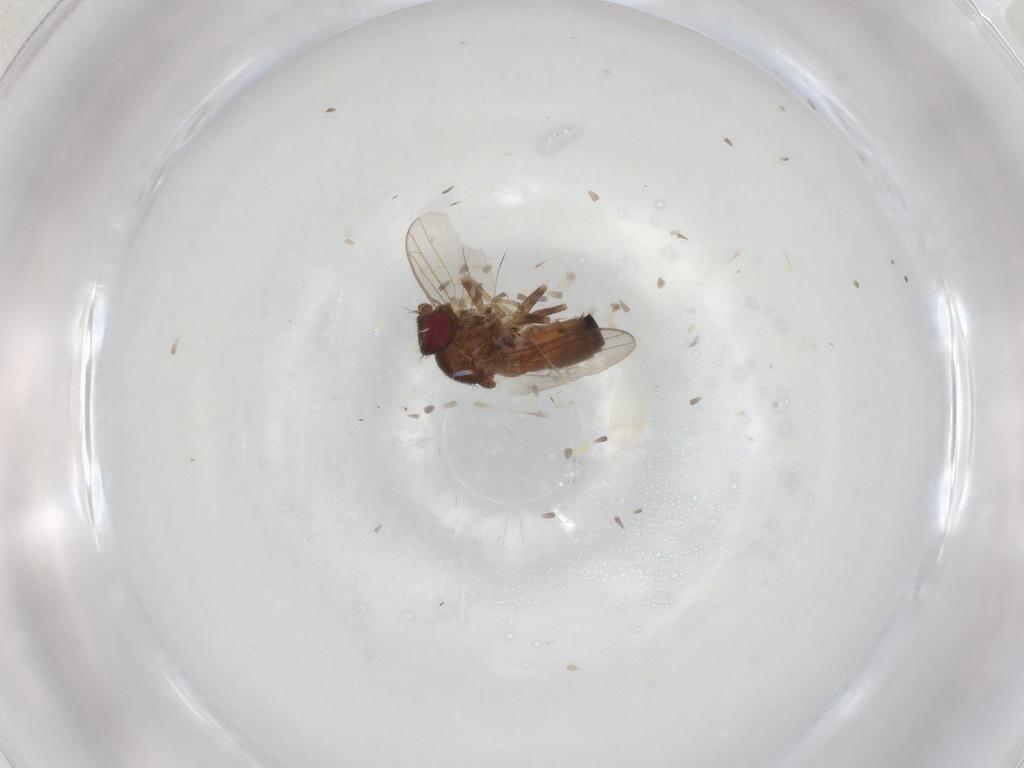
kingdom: Animalia
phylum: Arthropoda
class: Insecta
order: Diptera
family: Chloropidae
